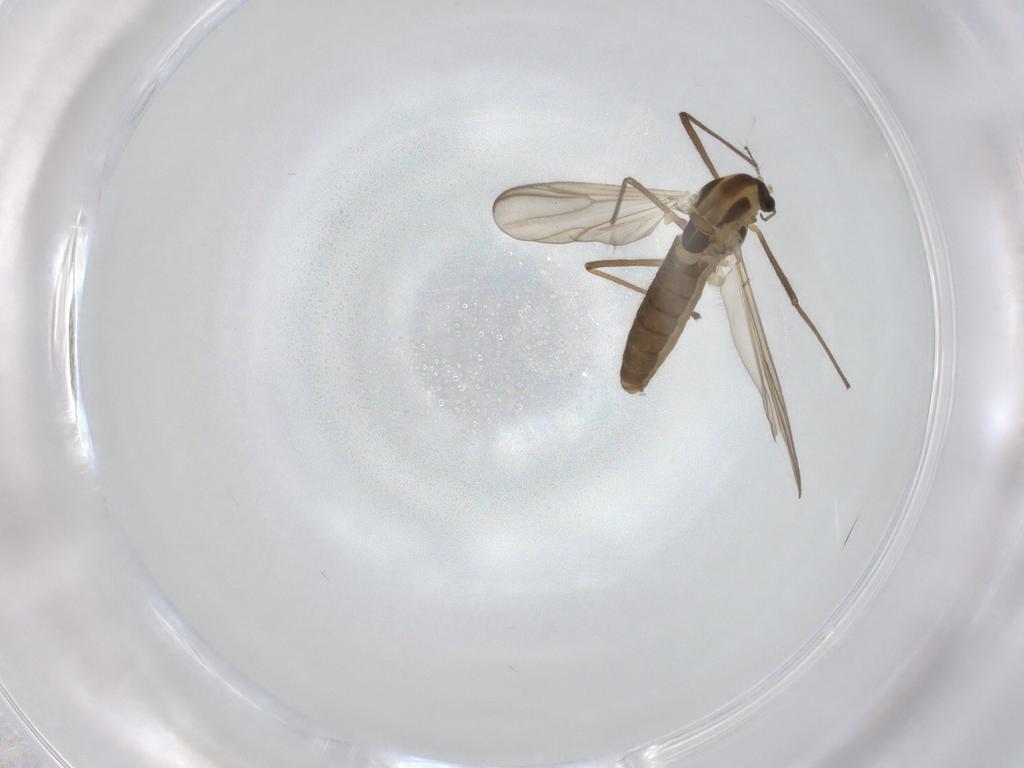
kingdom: Animalia
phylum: Arthropoda
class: Insecta
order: Diptera
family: Chironomidae
